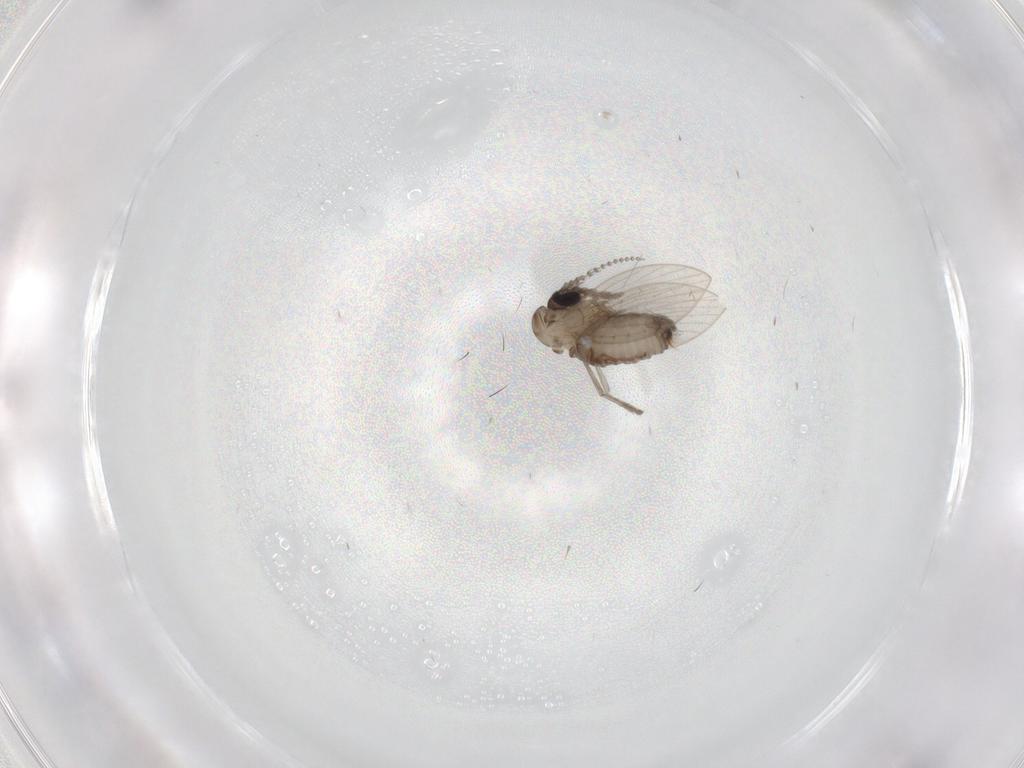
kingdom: Animalia
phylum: Arthropoda
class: Insecta
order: Diptera
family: Psychodidae
